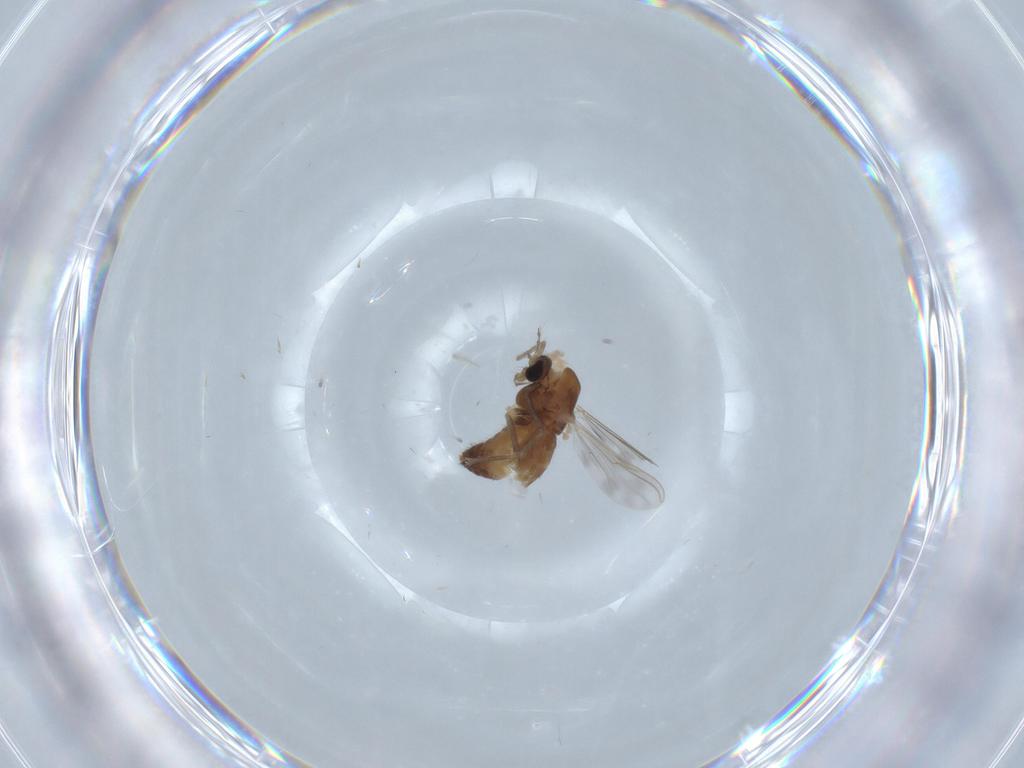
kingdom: Animalia
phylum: Arthropoda
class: Insecta
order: Diptera
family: Chironomidae
